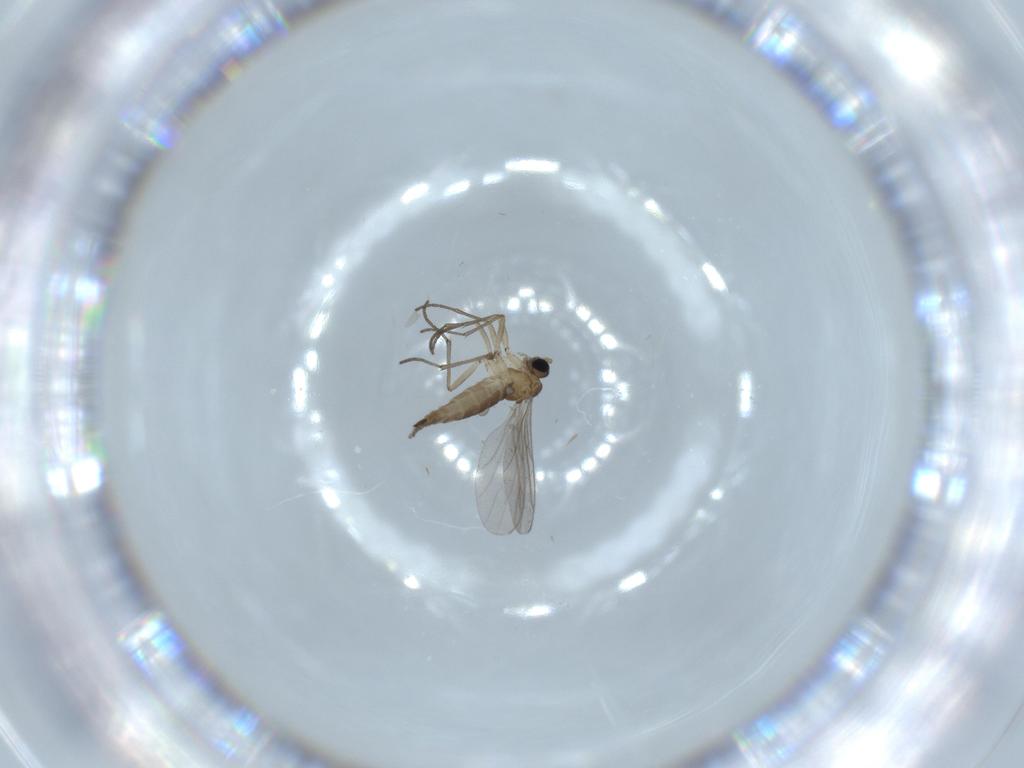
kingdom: Animalia
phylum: Arthropoda
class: Insecta
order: Diptera
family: Sciaridae
